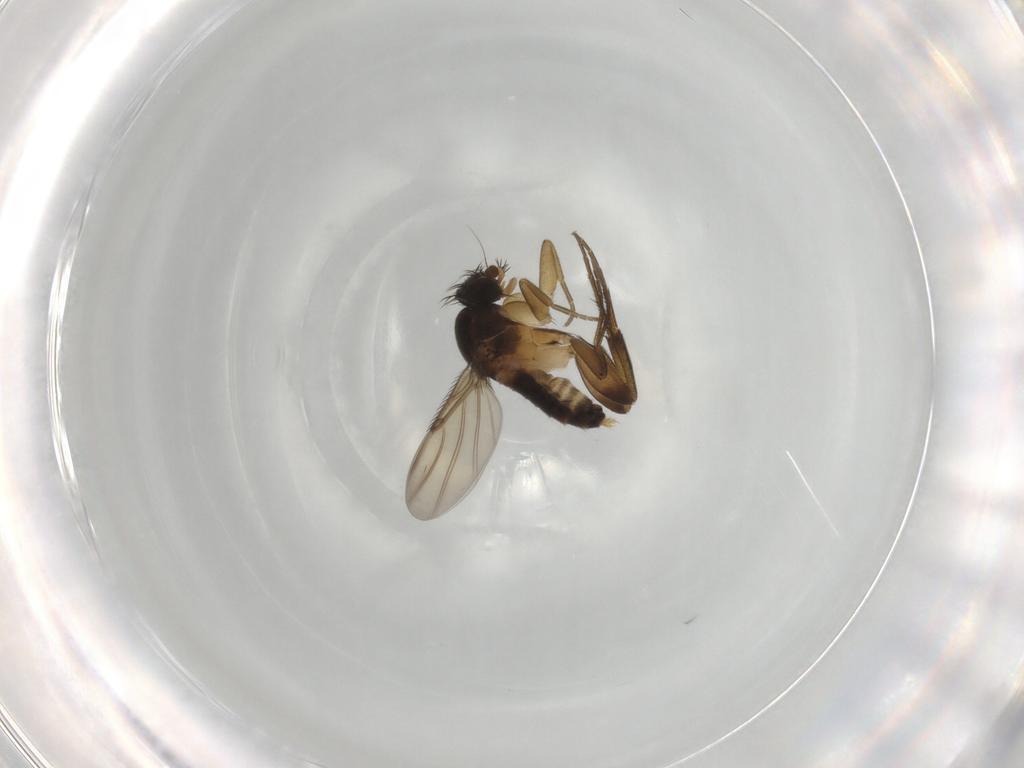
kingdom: Animalia
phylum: Arthropoda
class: Insecta
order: Diptera
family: Phoridae
